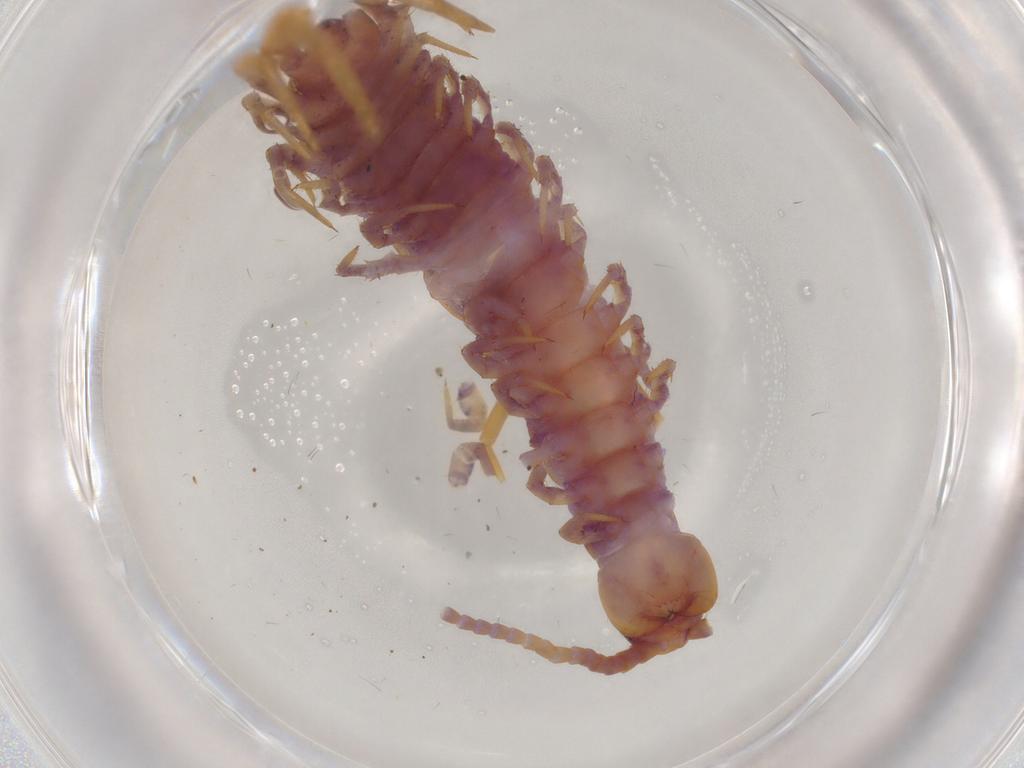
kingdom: Animalia
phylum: Arthropoda
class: Chilopoda
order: Lithobiomorpha
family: Lithobiidae
